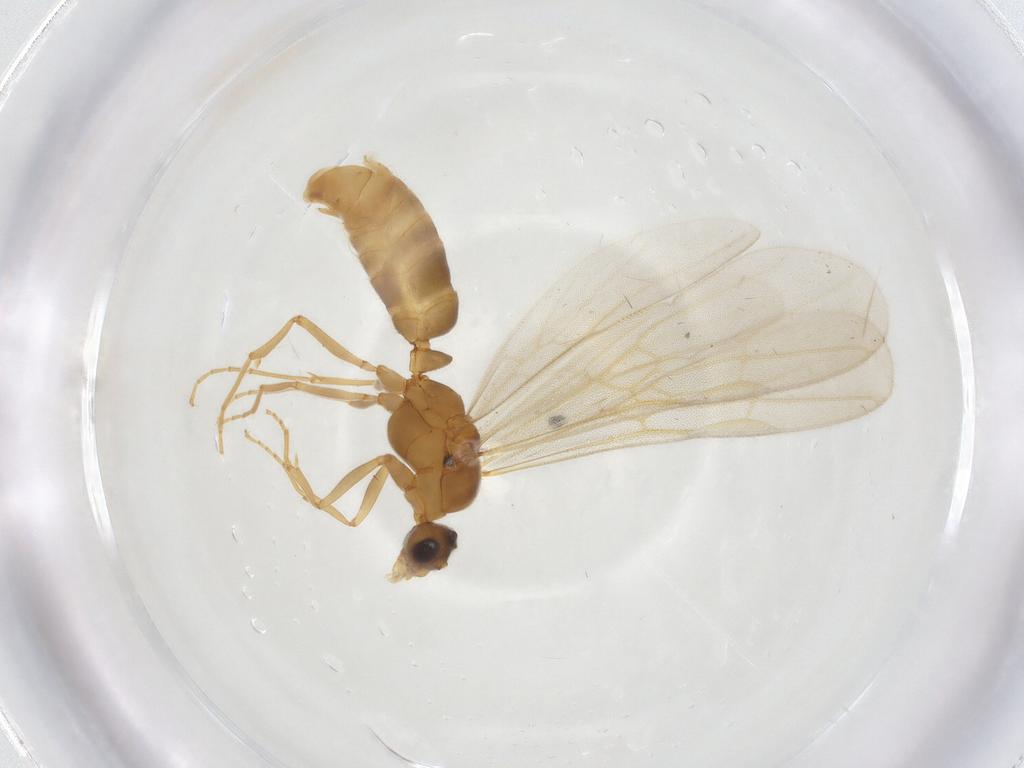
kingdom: Animalia
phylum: Arthropoda
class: Insecta
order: Hymenoptera
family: Formicidae
